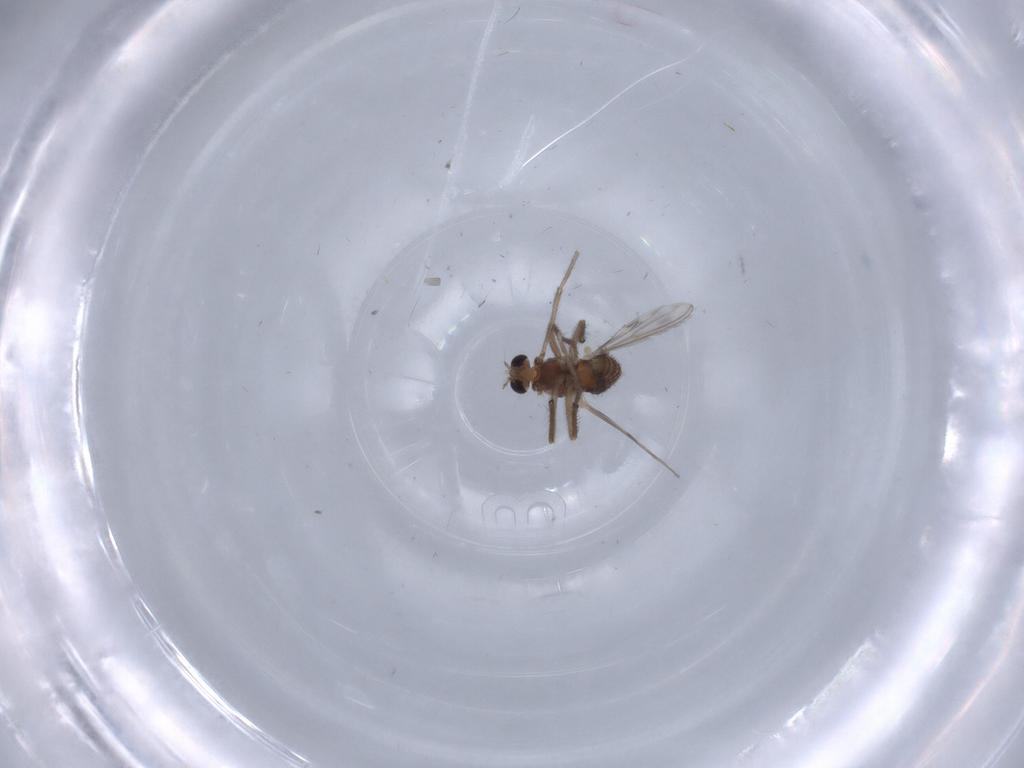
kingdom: Animalia
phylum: Arthropoda
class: Insecta
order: Diptera
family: Chironomidae
